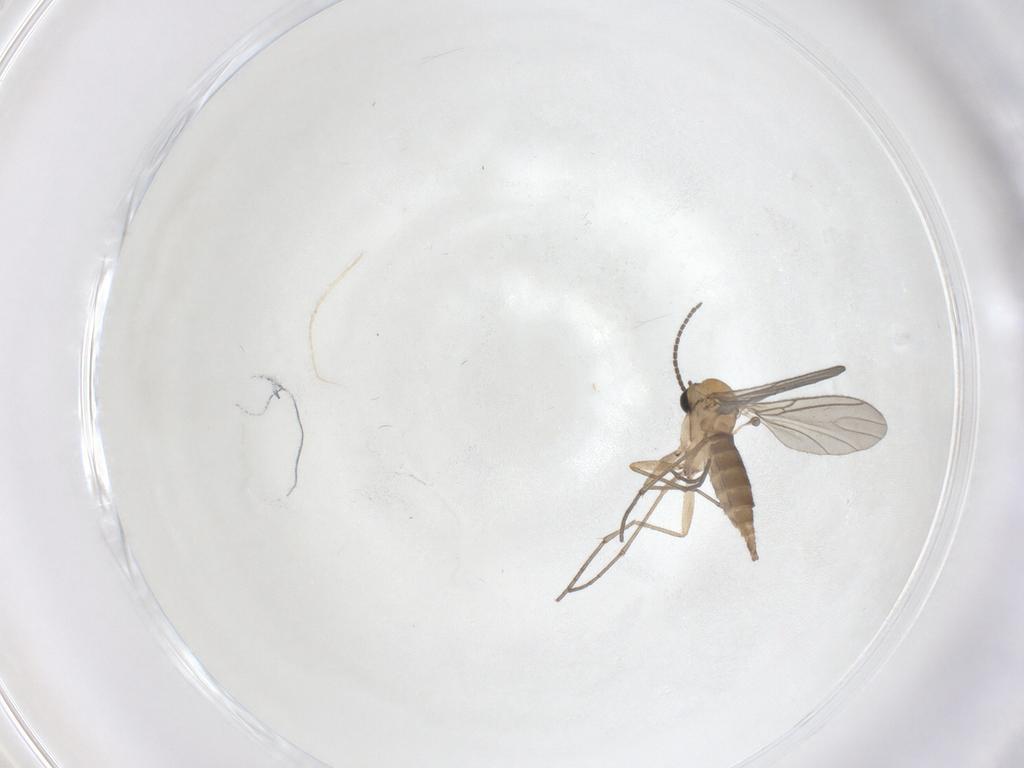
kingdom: Animalia
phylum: Arthropoda
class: Insecta
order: Diptera
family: Sciaridae
